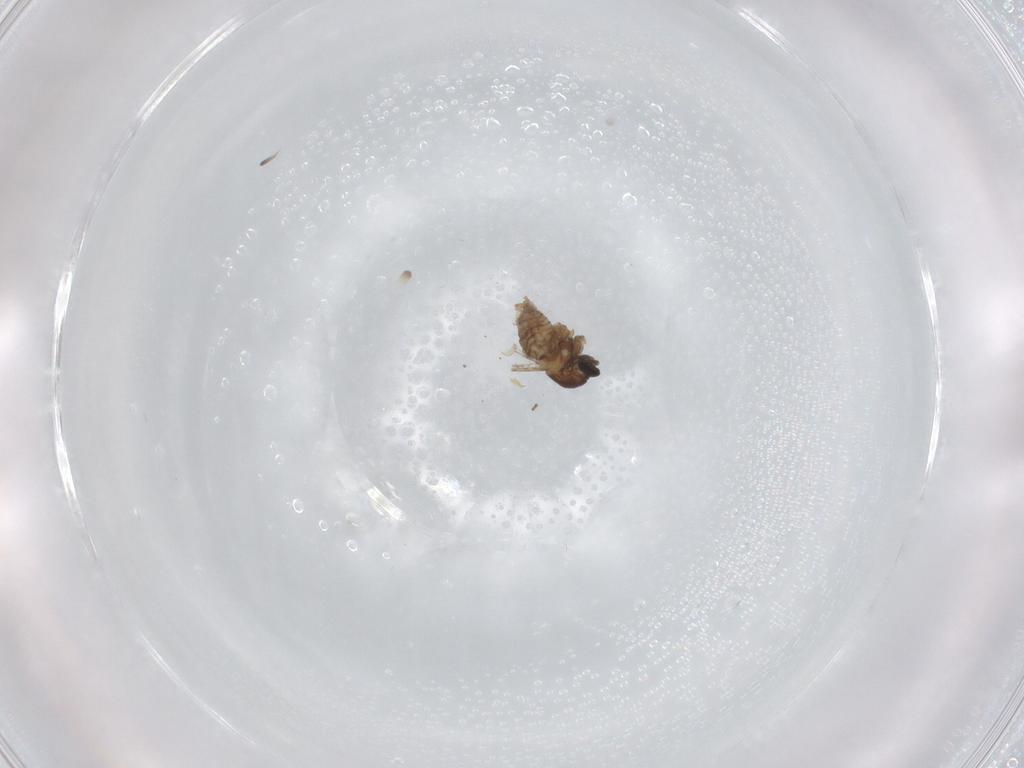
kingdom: Animalia
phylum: Arthropoda
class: Insecta
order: Diptera
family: Cecidomyiidae
